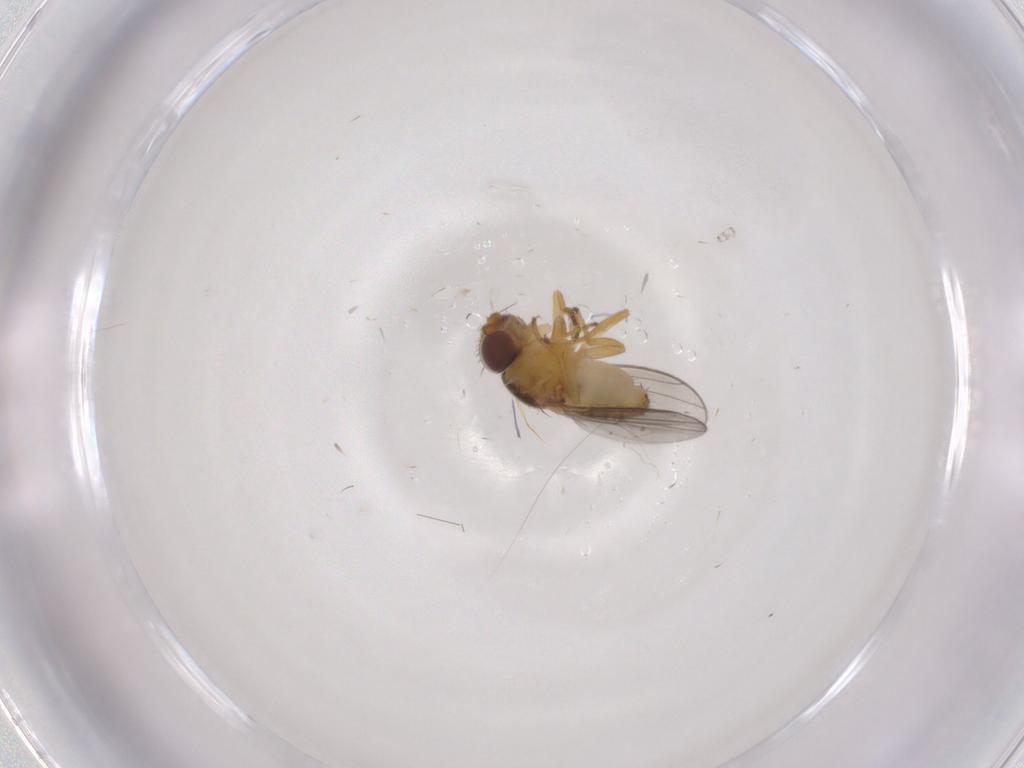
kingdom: Animalia
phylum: Arthropoda
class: Insecta
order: Diptera
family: Chloropidae
